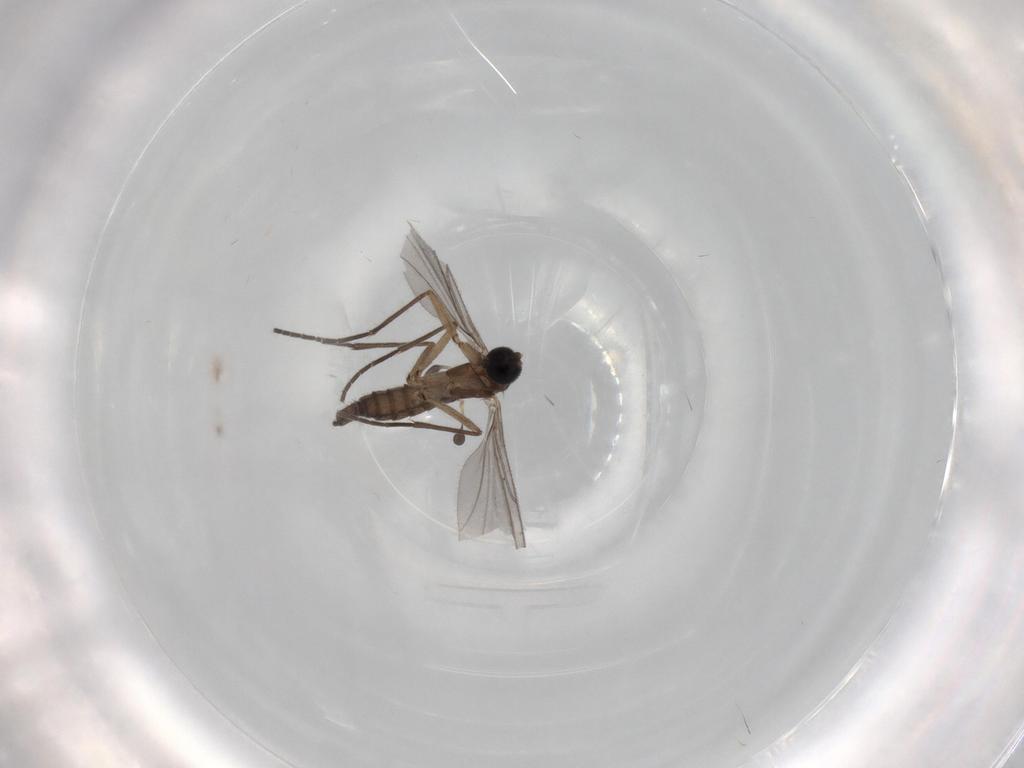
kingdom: Animalia
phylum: Arthropoda
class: Insecta
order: Diptera
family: Sciaridae
